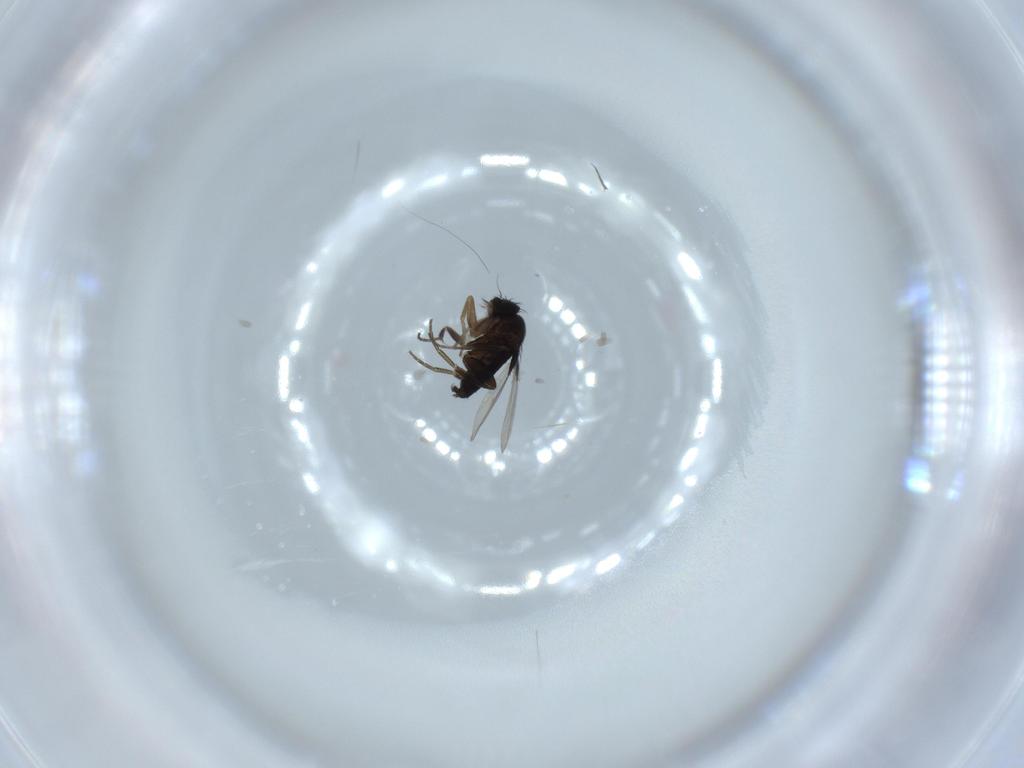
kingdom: Animalia
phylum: Arthropoda
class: Insecta
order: Diptera
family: Phoridae
